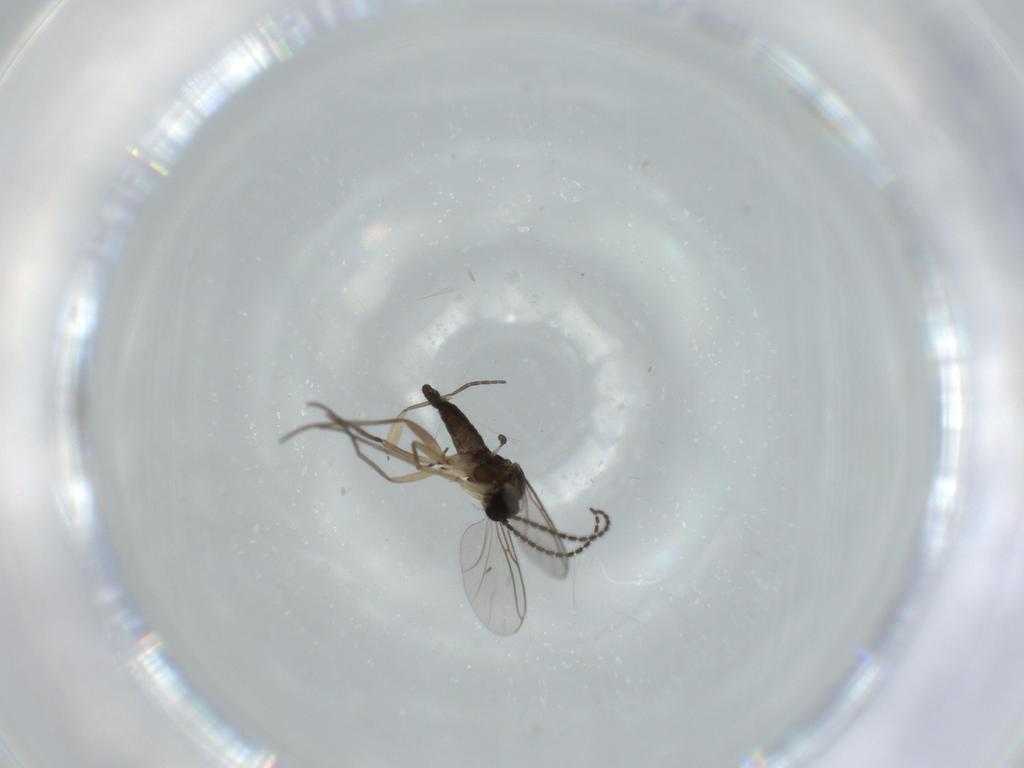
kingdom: Animalia
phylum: Arthropoda
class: Insecta
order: Diptera
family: Sciaridae
